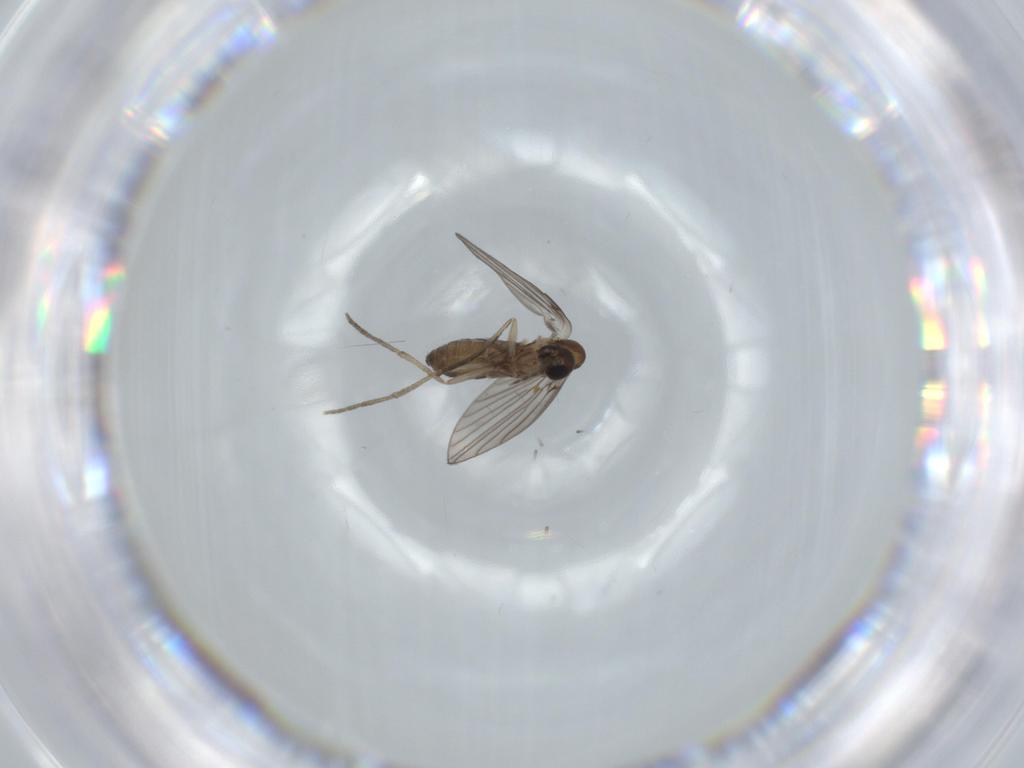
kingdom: Animalia
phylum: Arthropoda
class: Insecta
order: Diptera
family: Psychodidae
